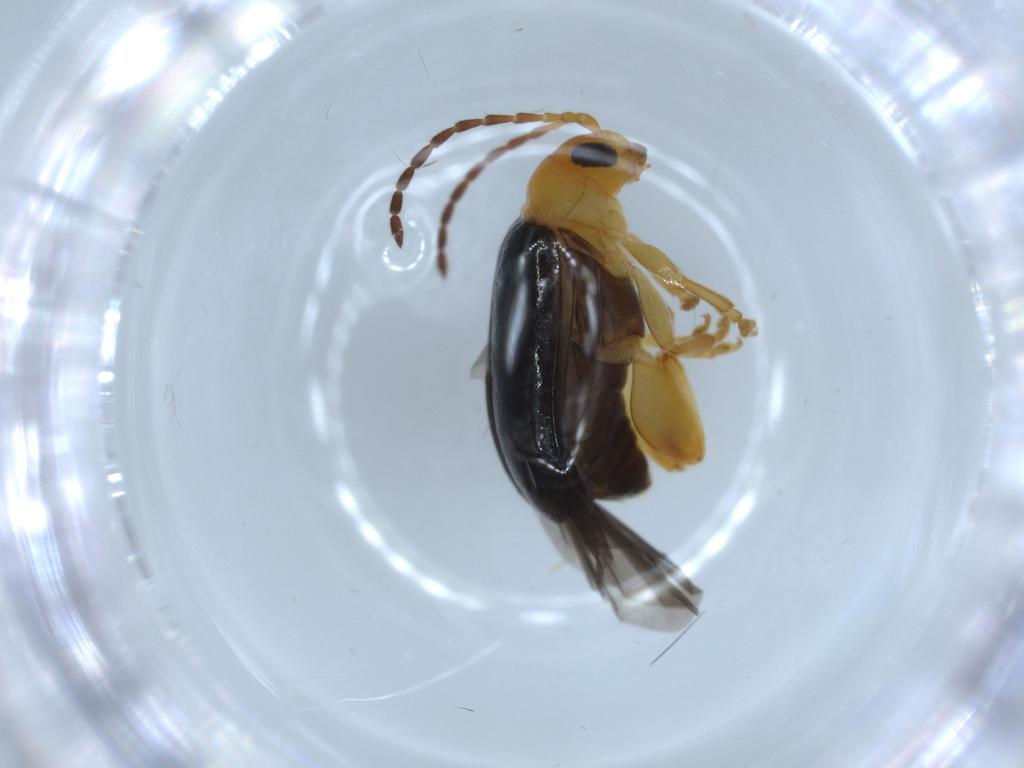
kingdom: Animalia
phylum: Arthropoda
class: Insecta
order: Coleoptera
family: Chrysomelidae
